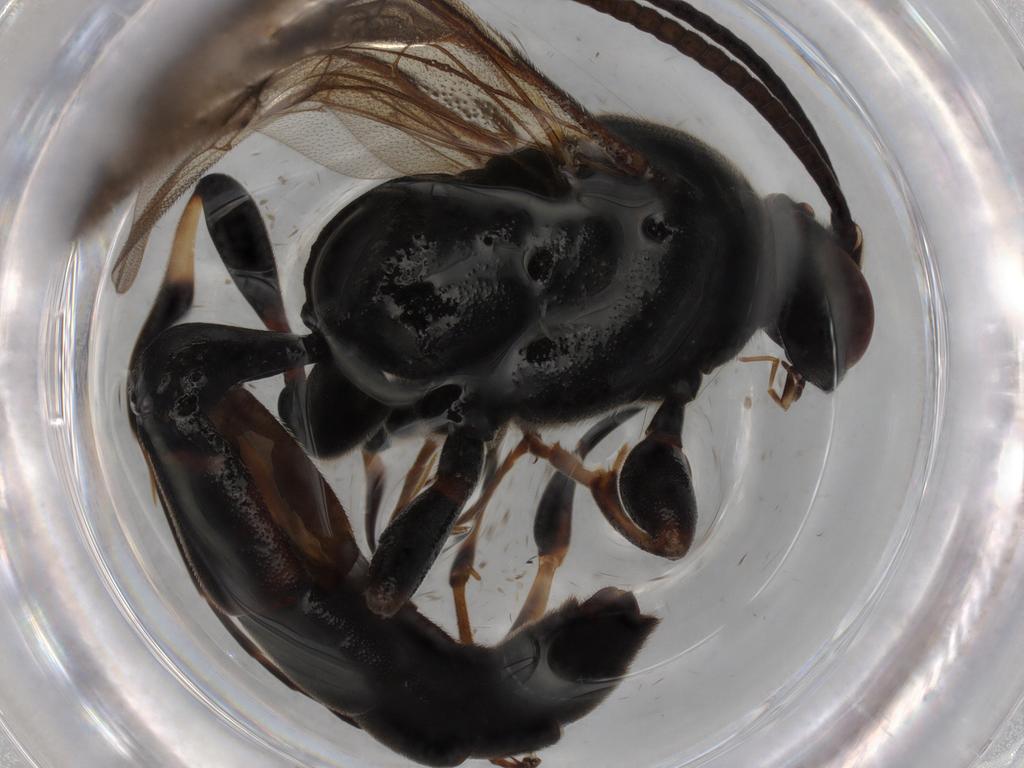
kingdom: Animalia
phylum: Arthropoda
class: Insecta
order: Hymenoptera
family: Ichneumonidae
